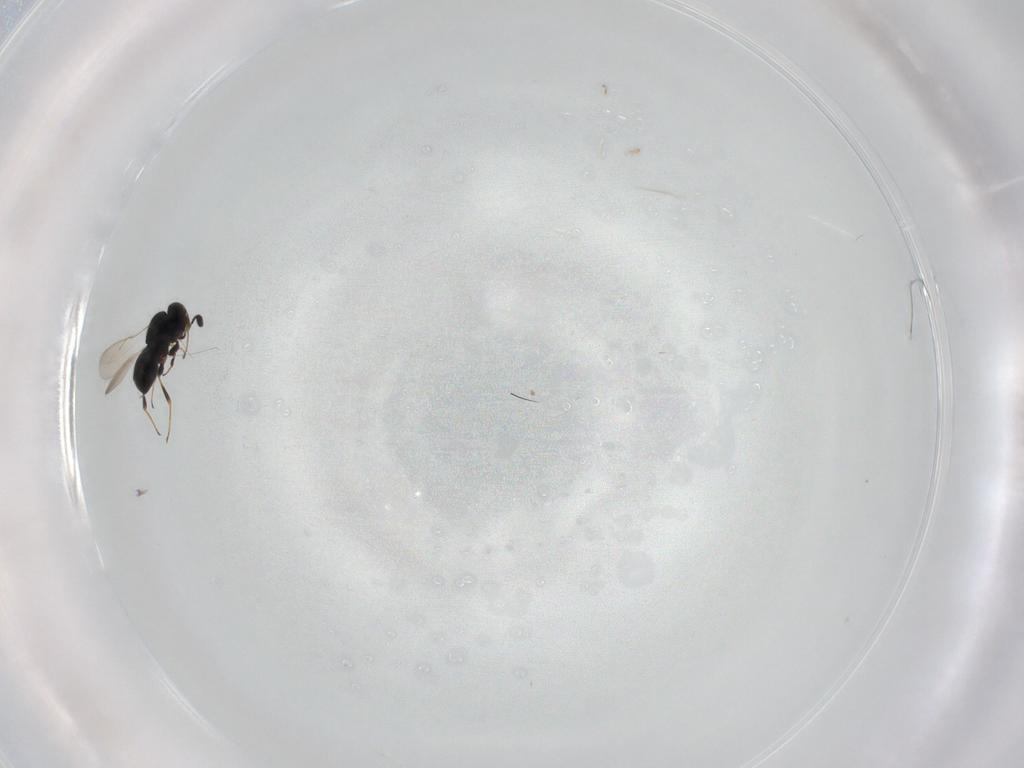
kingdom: Animalia
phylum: Arthropoda
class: Insecta
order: Hymenoptera
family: Scelionidae
